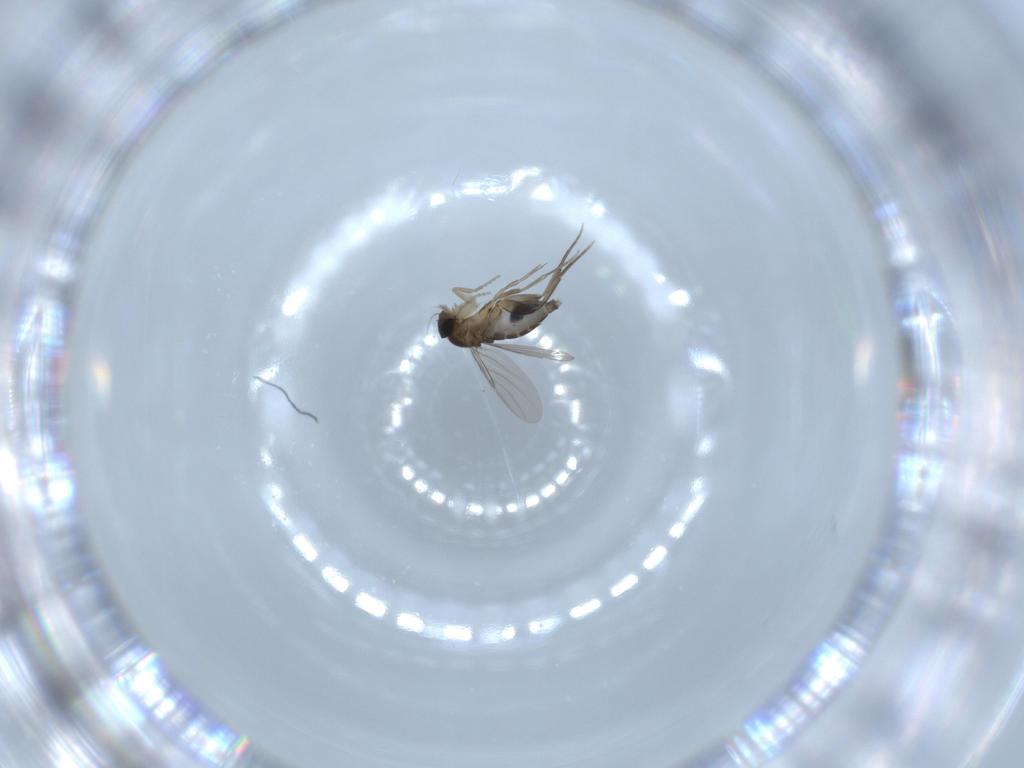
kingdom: Animalia
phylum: Arthropoda
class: Insecta
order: Diptera
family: Phoridae
